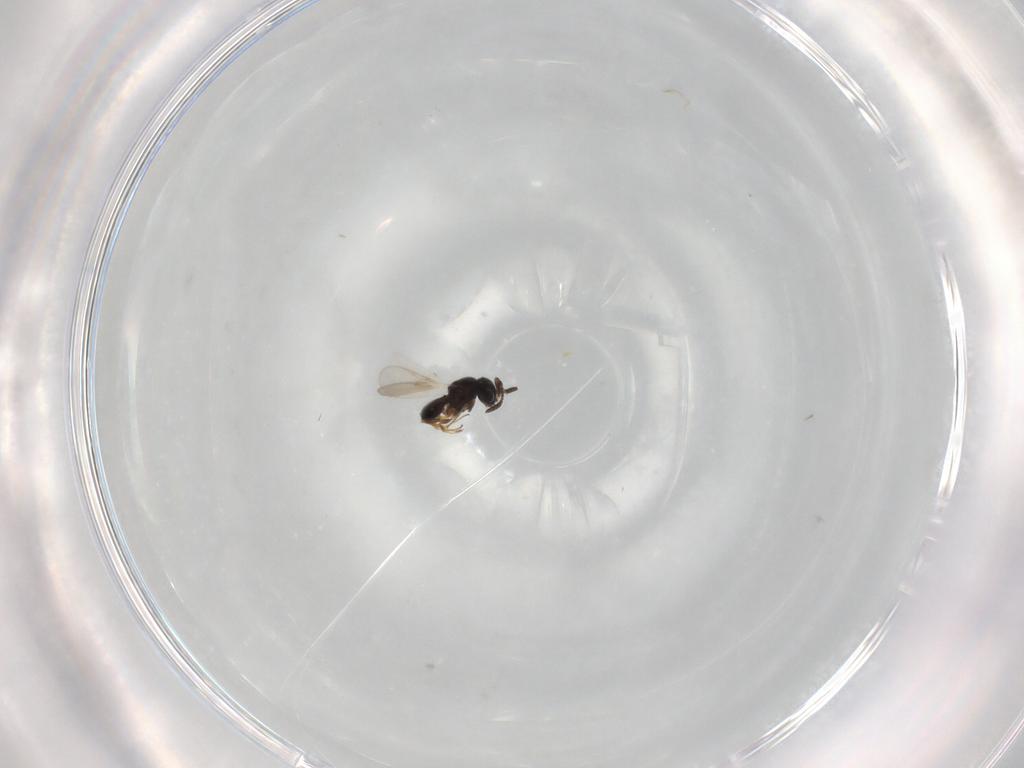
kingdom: Animalia
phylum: Arthropoda
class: Insecta
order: Hymenoptera
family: Scelionidae
